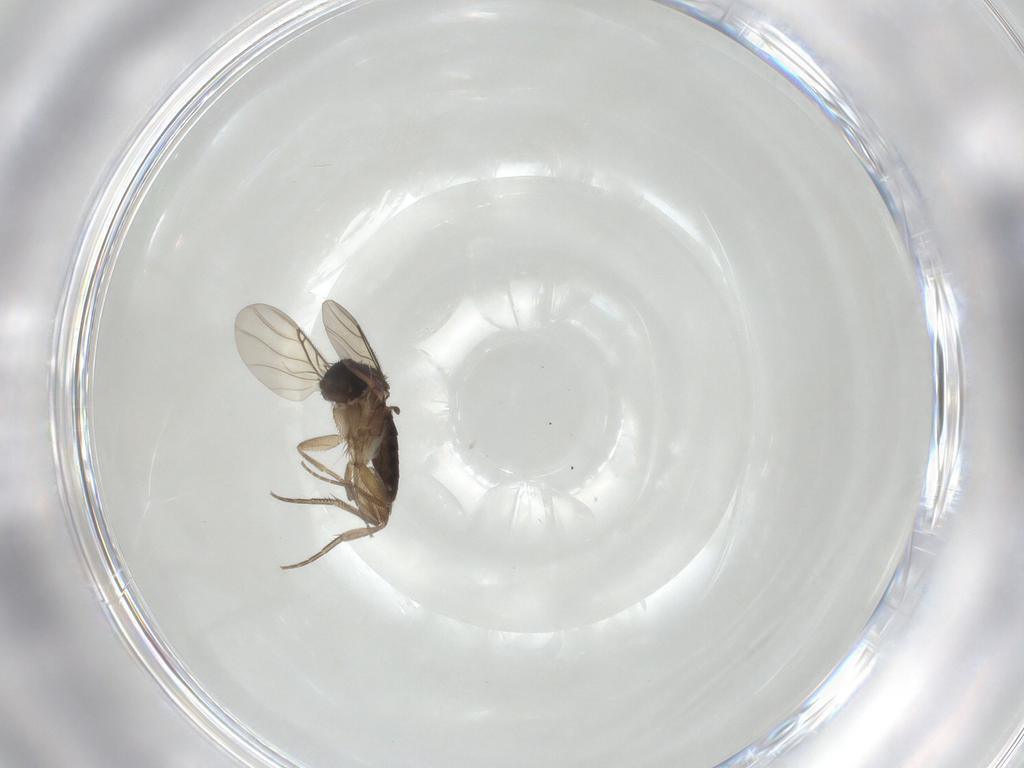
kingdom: Animalia
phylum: Arthropoda
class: Insecta
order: Diptera
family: Phoridae
